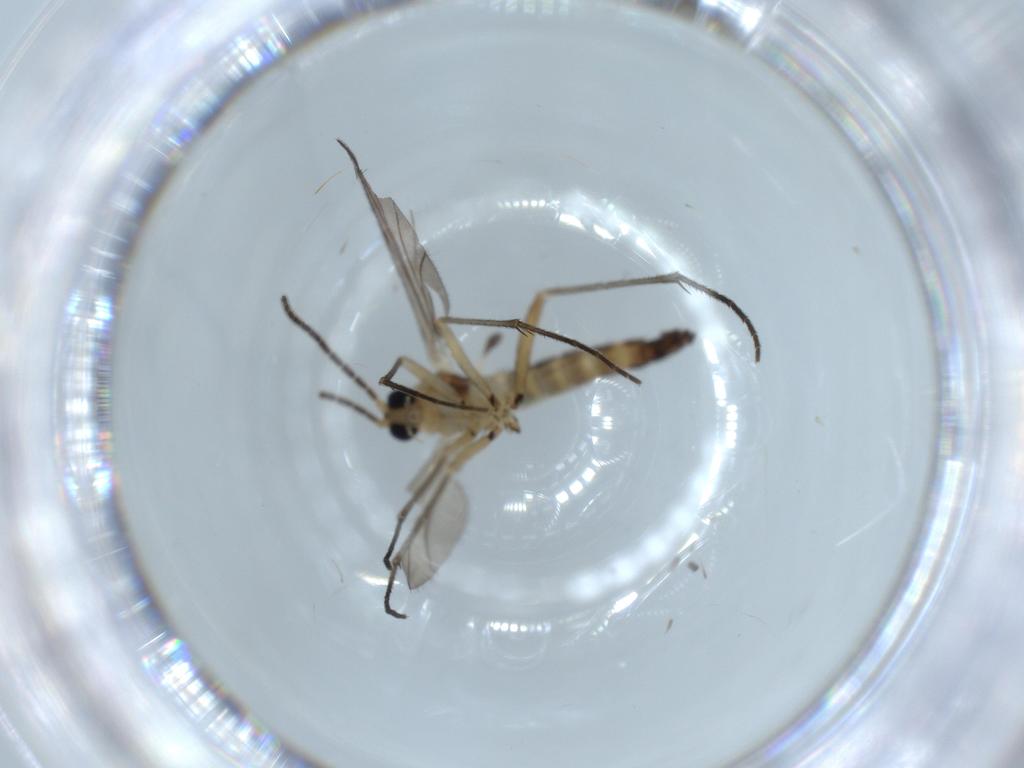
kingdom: Animalia
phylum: Arthropoda
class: Insecta
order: Diptera
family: Sciaridae
